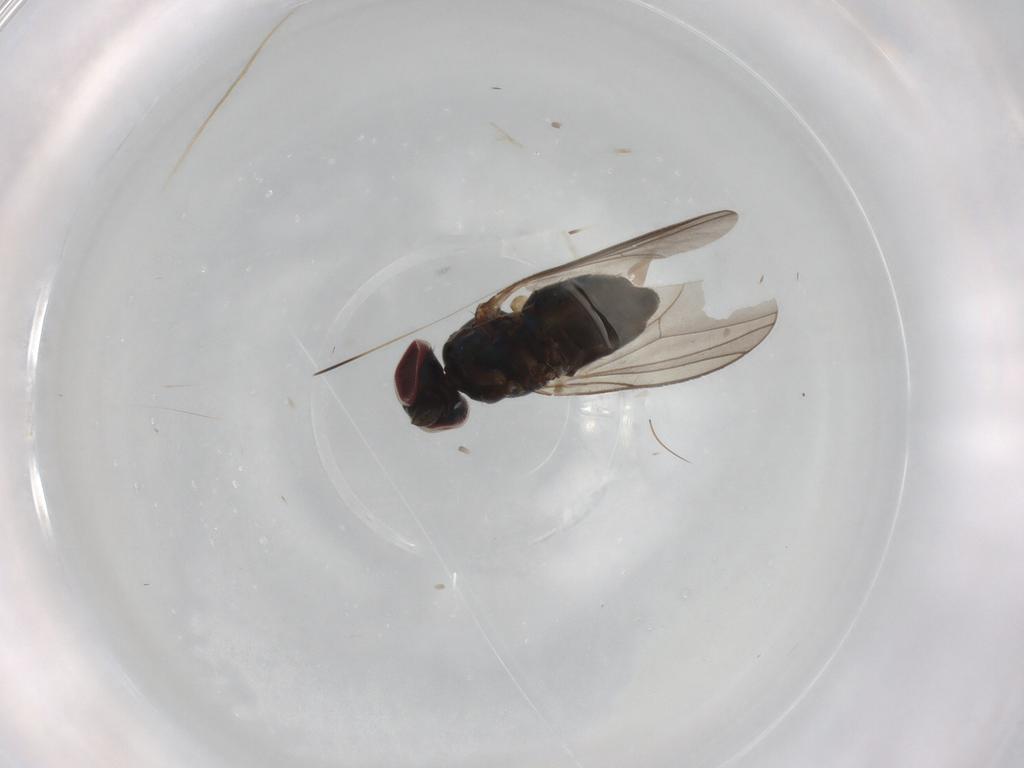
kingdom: Animalia
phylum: Arthropoda
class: Insecta
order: Diptera
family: Dolichopodidae
